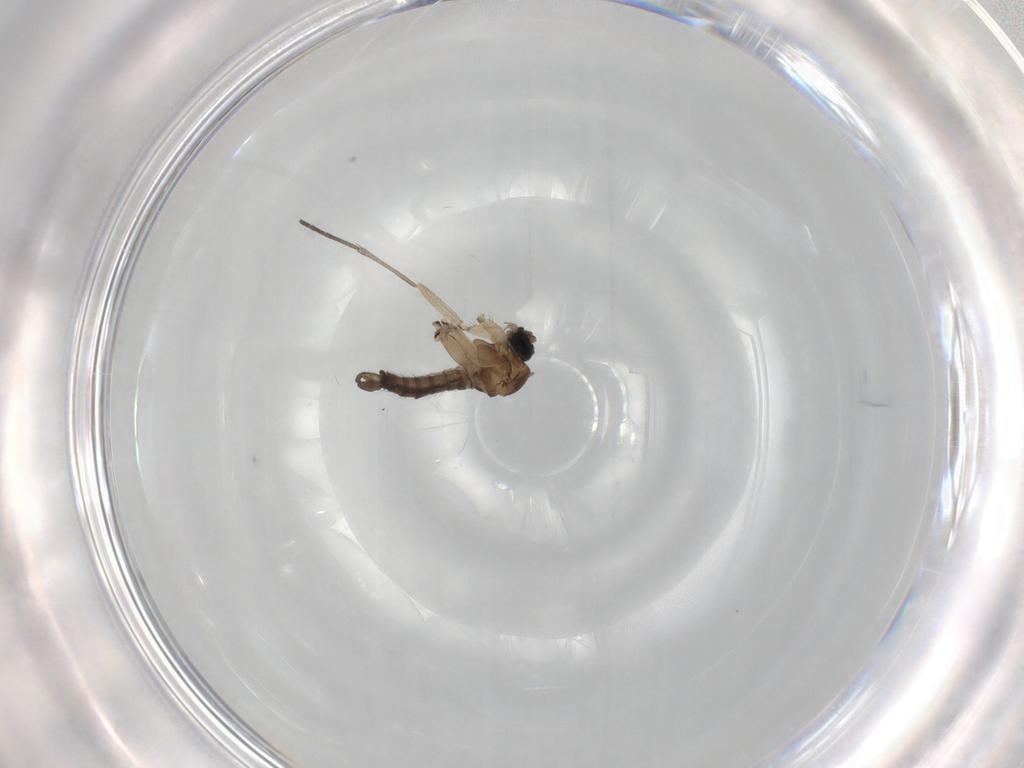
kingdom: Animalia
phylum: Arthropoda
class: Insecta
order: Diptera
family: Sciaridae
